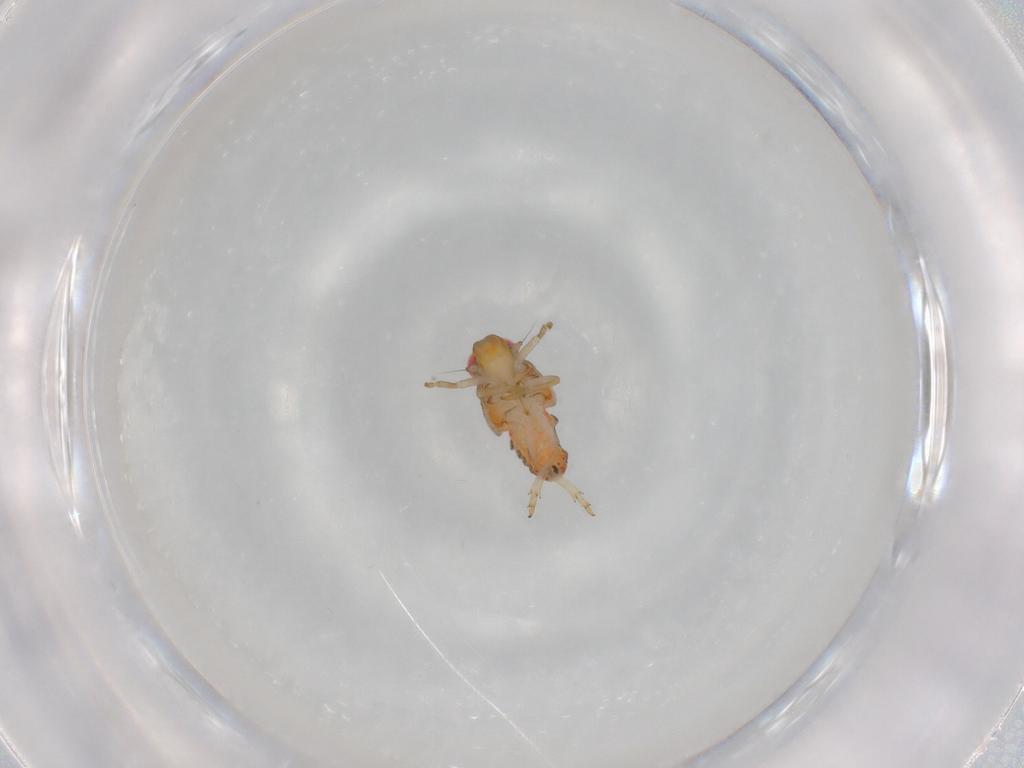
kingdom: Animalia
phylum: Arthropoda
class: Insecta
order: Hemiptera
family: Issidae
